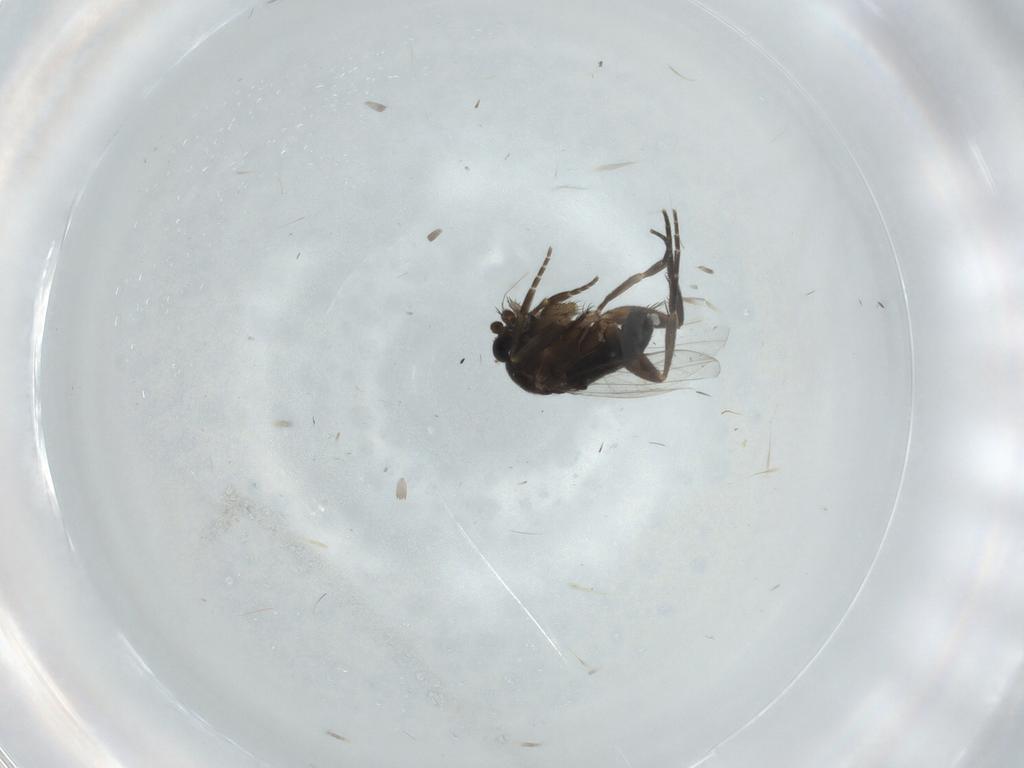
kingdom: Animalia
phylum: Arthropoda
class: Insecta
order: Diptera
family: Phoridae
